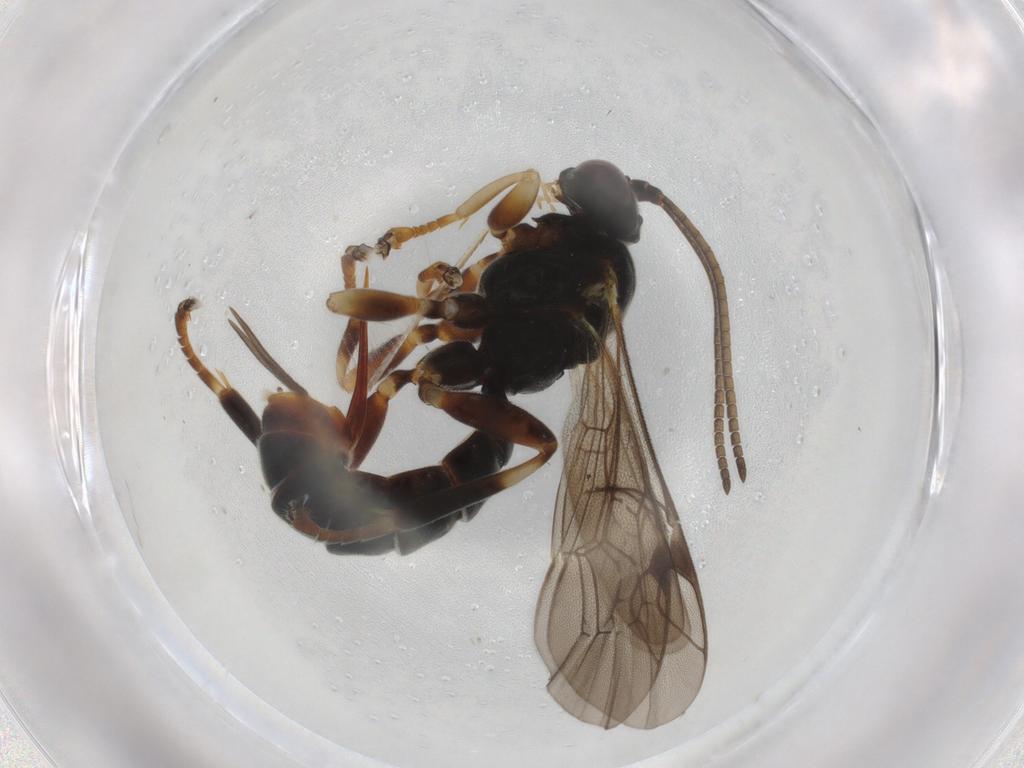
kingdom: Animalia
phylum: Arthropoda
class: Insecta
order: Hymenoptera
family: Ichneumonidae
